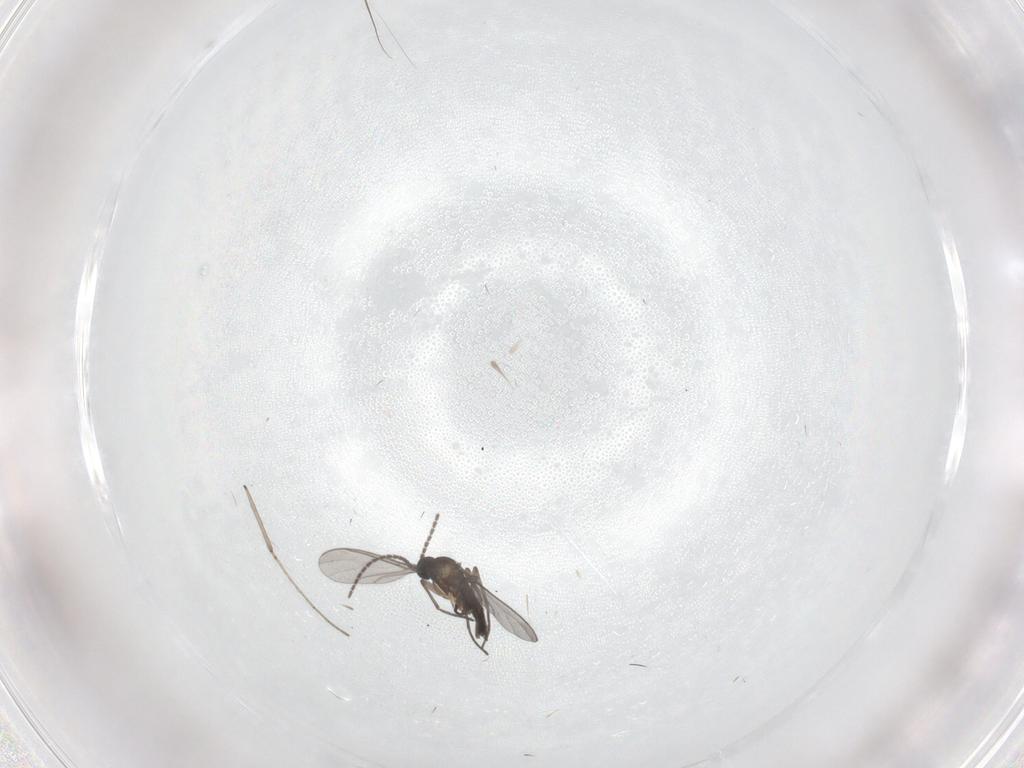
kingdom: Animalia
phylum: Arthropoda
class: Insecta
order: Diptera
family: Sciaridae
